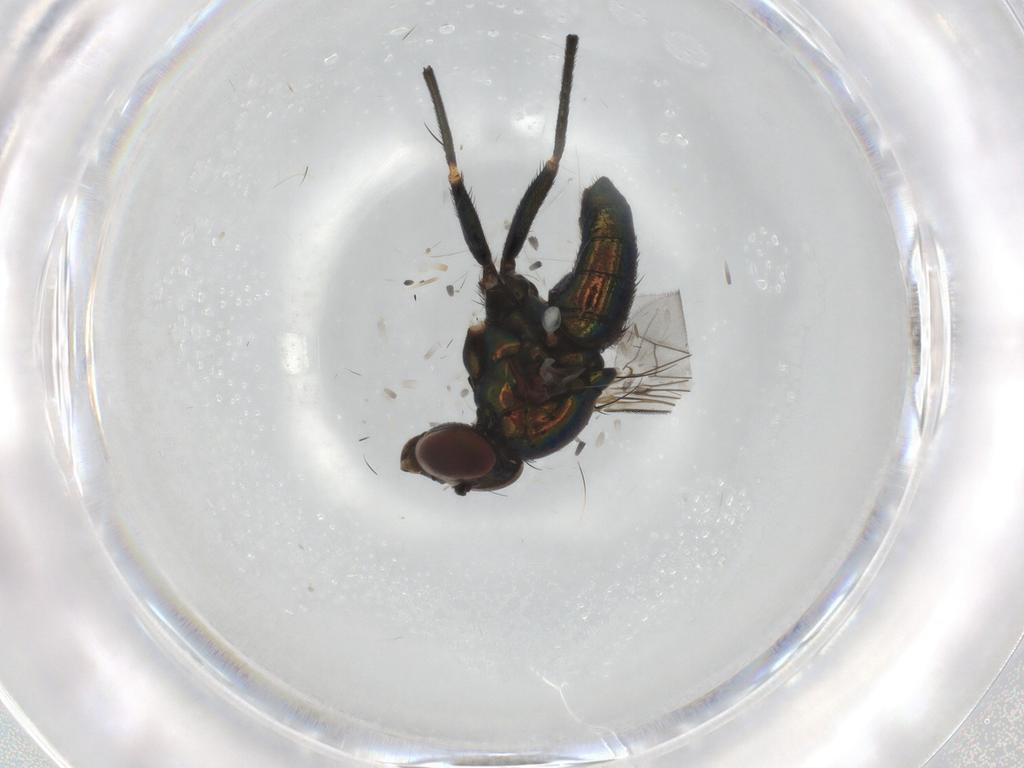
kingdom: Animalia
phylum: Arthropoda
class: Insecta
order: Diptera
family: Dolichopodidae
